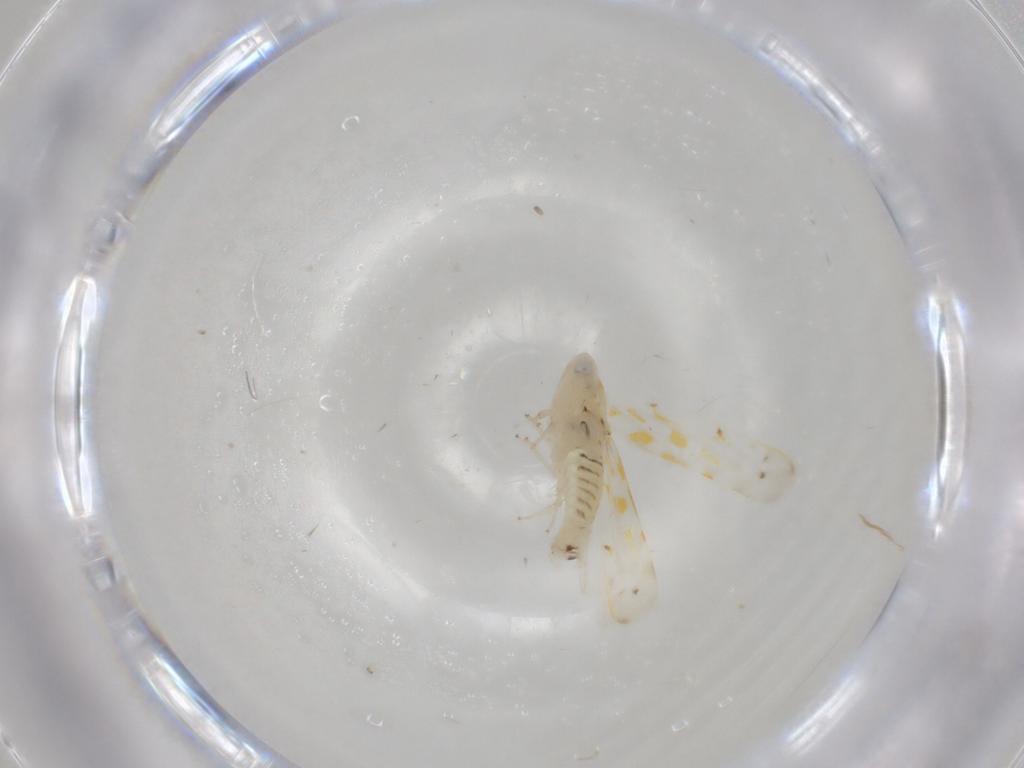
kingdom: Animalia
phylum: Arthropoda
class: Insecta
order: Hemiptera
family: Cicadellidae
